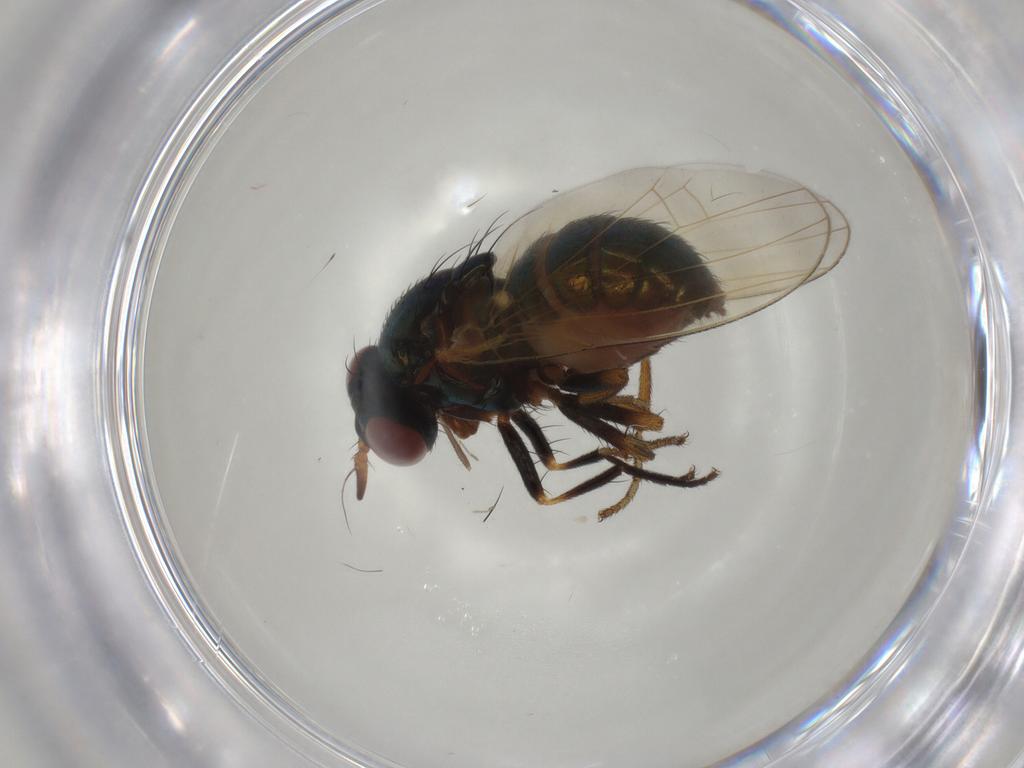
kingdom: Animalia
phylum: Arthropoda
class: Insecta
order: Diptera
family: Lauxaniidae
